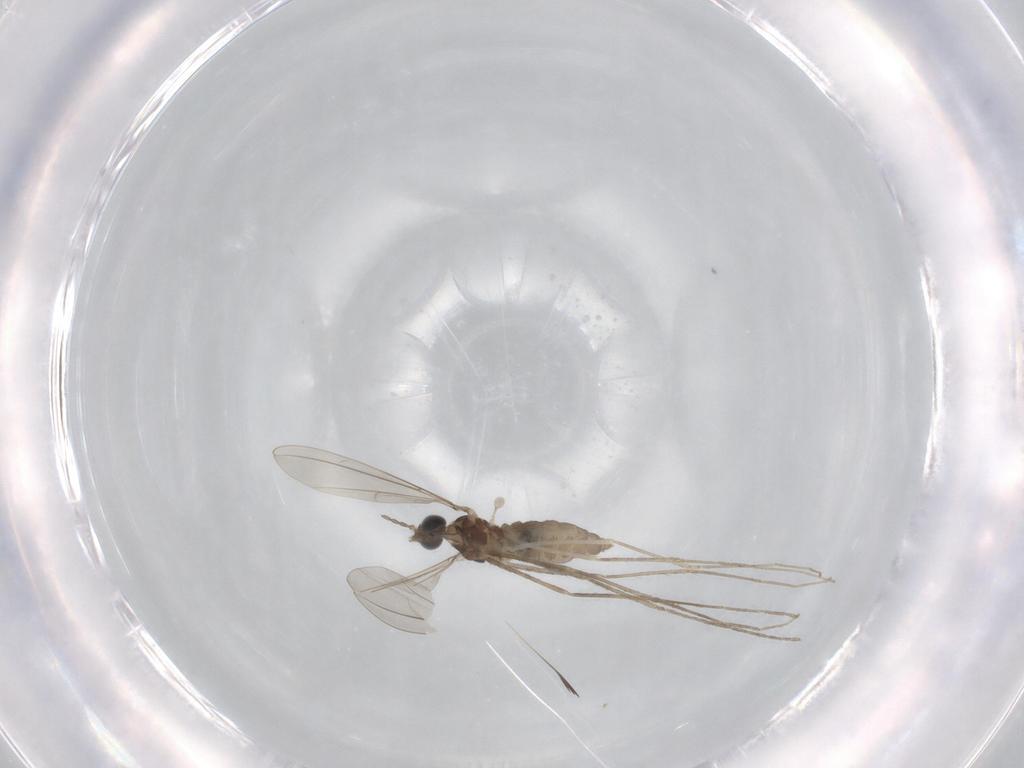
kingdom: Animalia
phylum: Arthropoda
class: Insecta
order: Diptera
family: Cecidomyiidae
